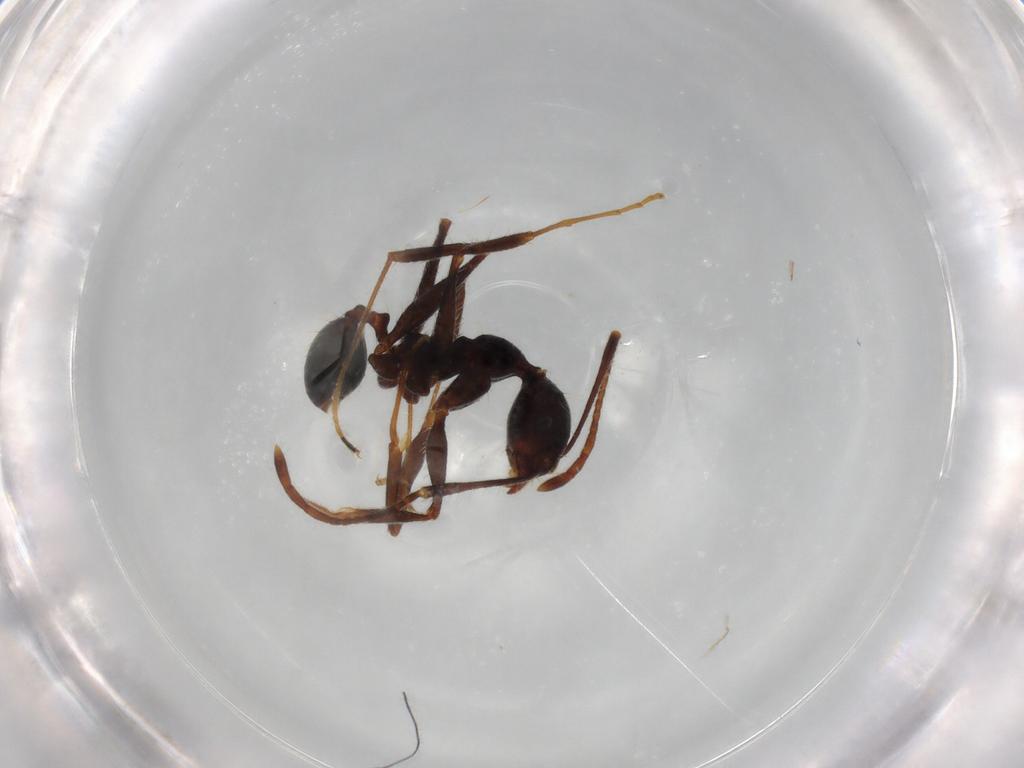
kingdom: Animalia
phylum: Arthropoda
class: Insecta
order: Hymenoptera
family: Formicidae
